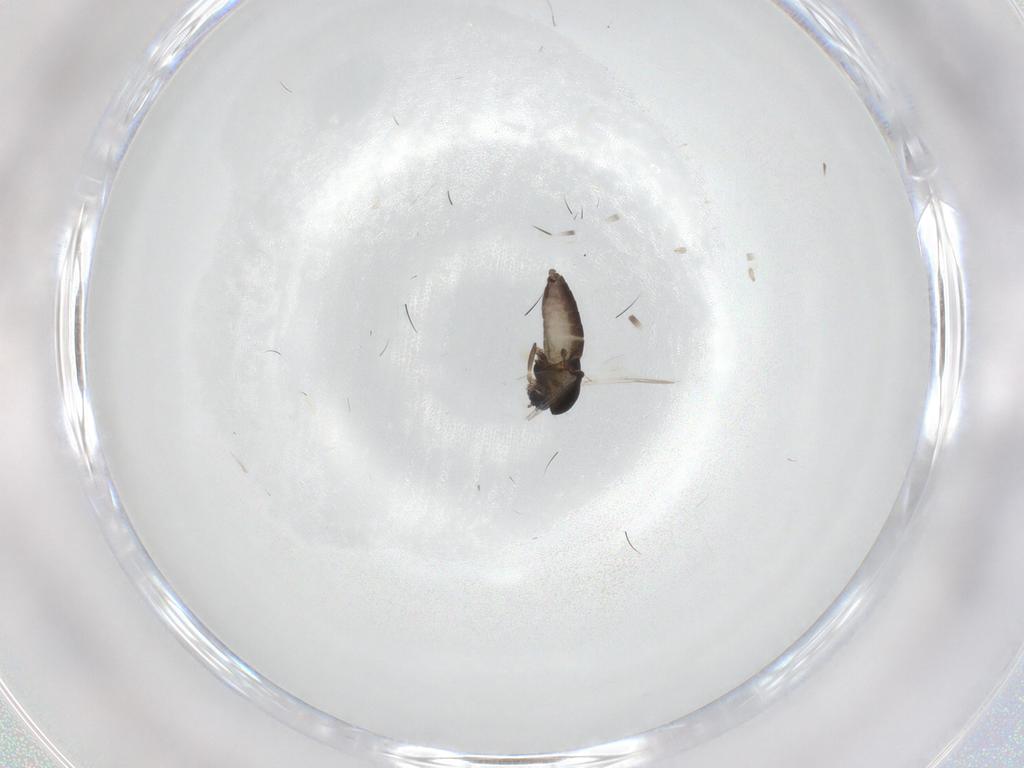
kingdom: Animalia
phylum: Arthropoda
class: Insecta
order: Diptera
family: Chironomidae
